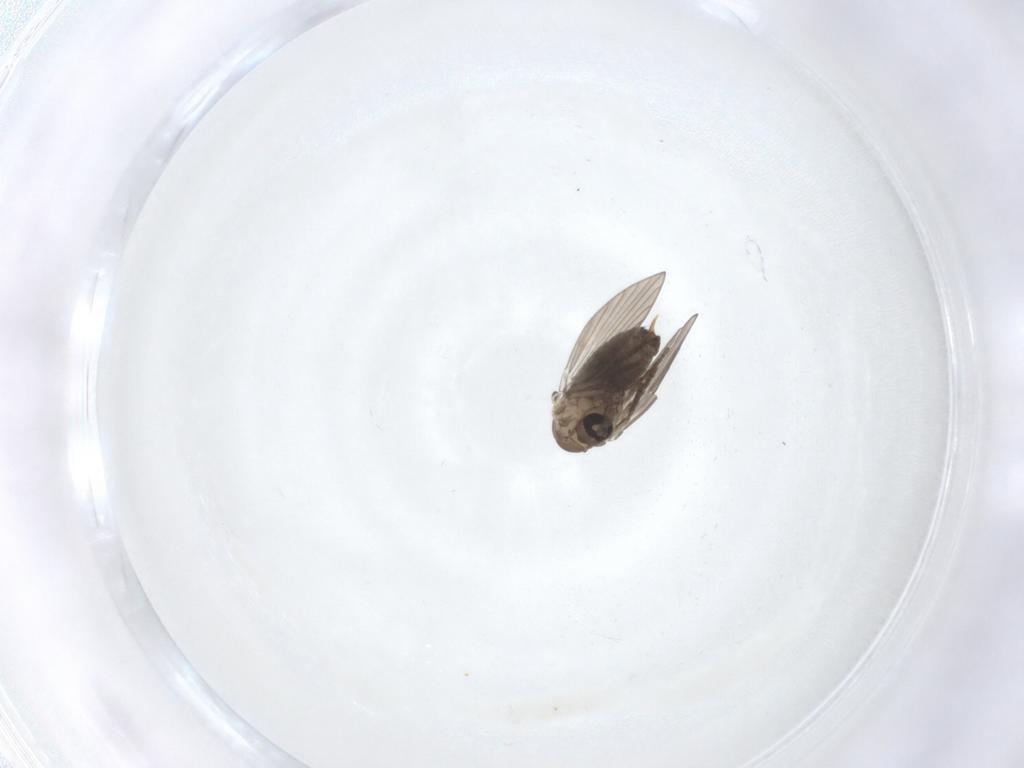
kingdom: Animalia
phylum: Arthropoda
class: Insecta
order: Diptera
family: Psychodidae
